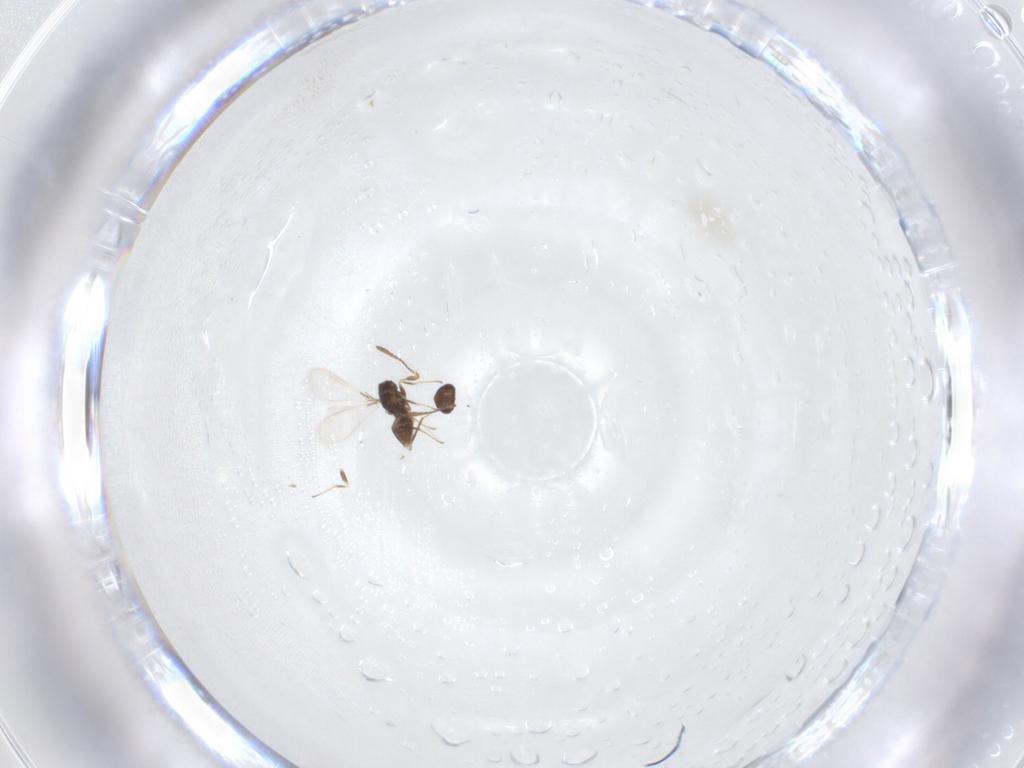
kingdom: Animalia
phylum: Arthropoda
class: Insecta
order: Hymenoptera
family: Mymaridae
